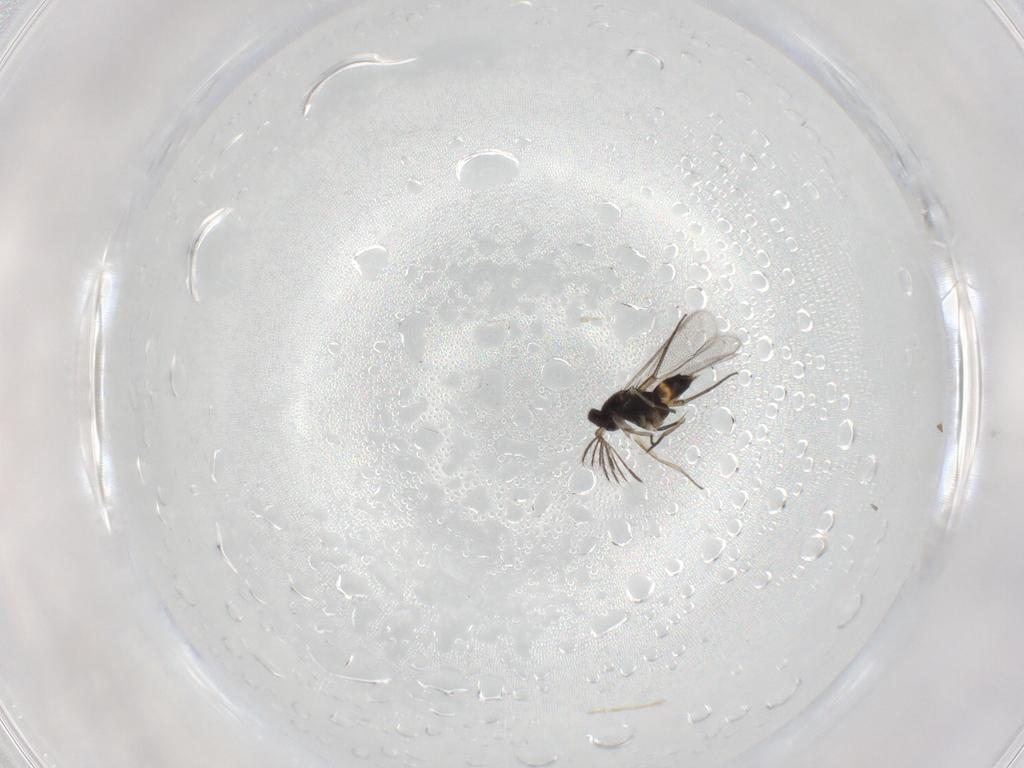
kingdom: Animalia
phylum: Arthropoda
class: Insecta
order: Hymenoptera
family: Eulophidae
